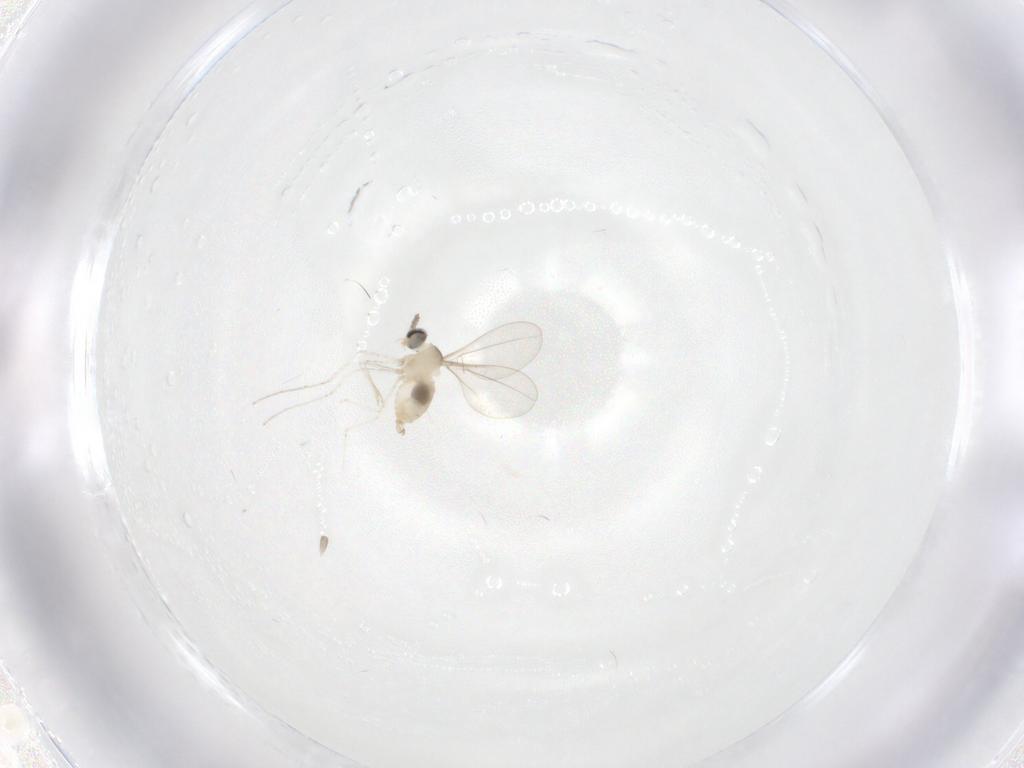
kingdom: Animalia
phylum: Arthropoda
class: Insecta
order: Diptera
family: Cecidomyiidae
